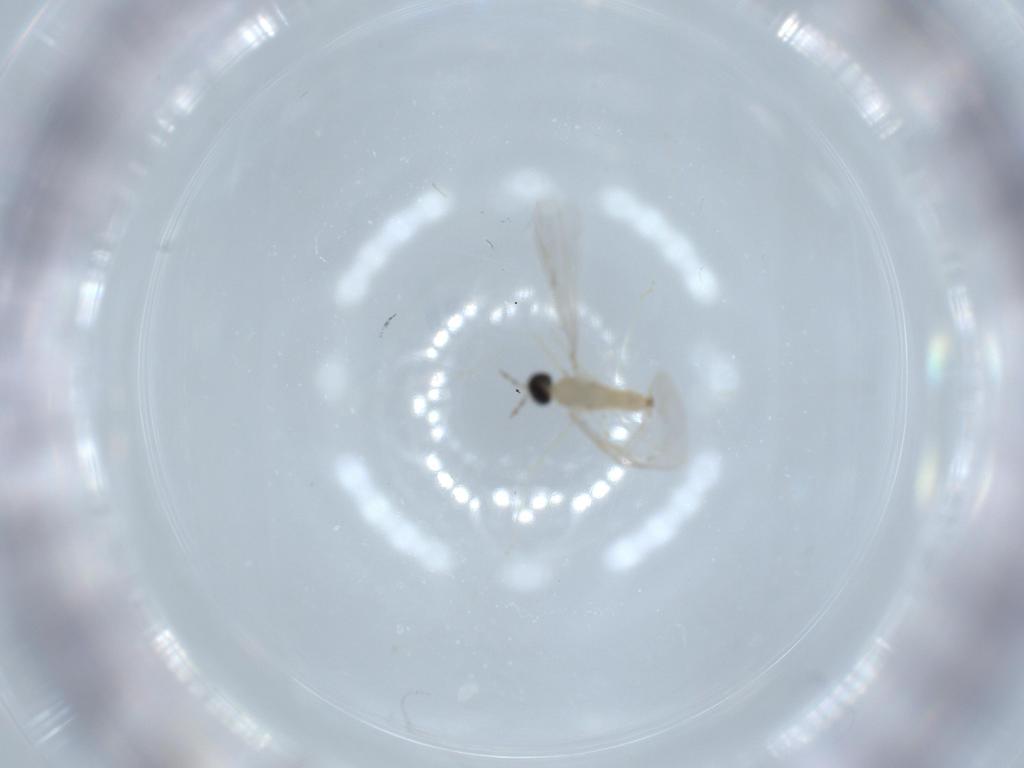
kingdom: Animalia
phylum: Arthropoda
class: Insecta
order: Diptera
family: Cecidomyiidae
